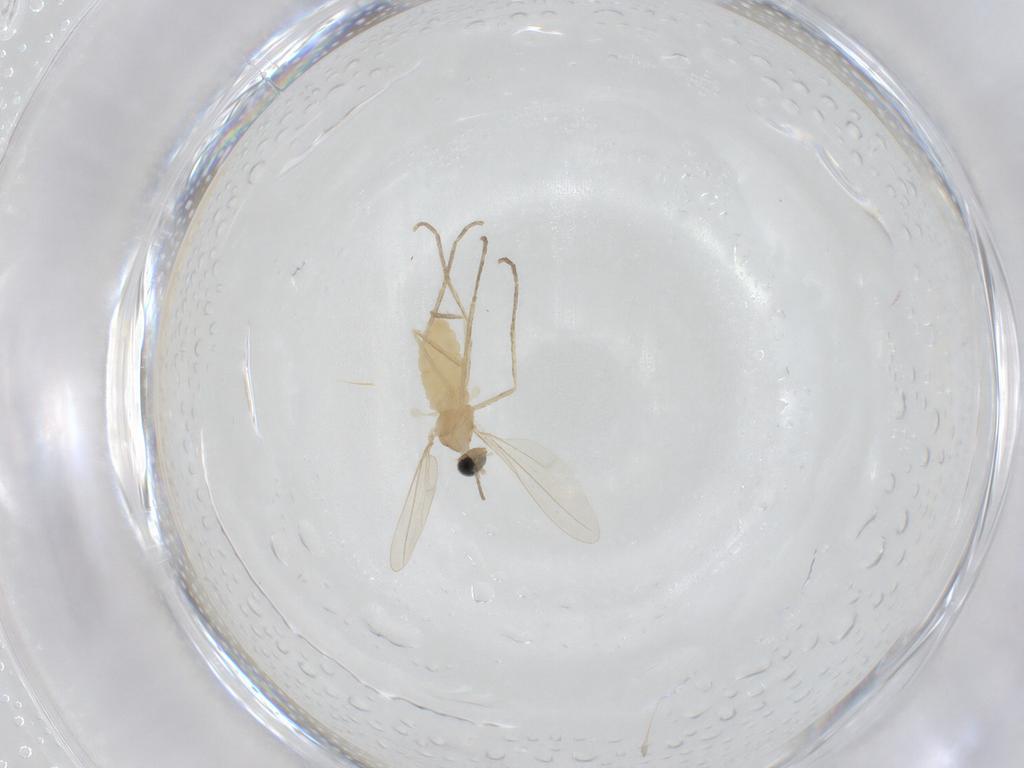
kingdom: Animalia
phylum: Arthropoda
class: Insecta
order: Diptera
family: Cecidomyiidae
